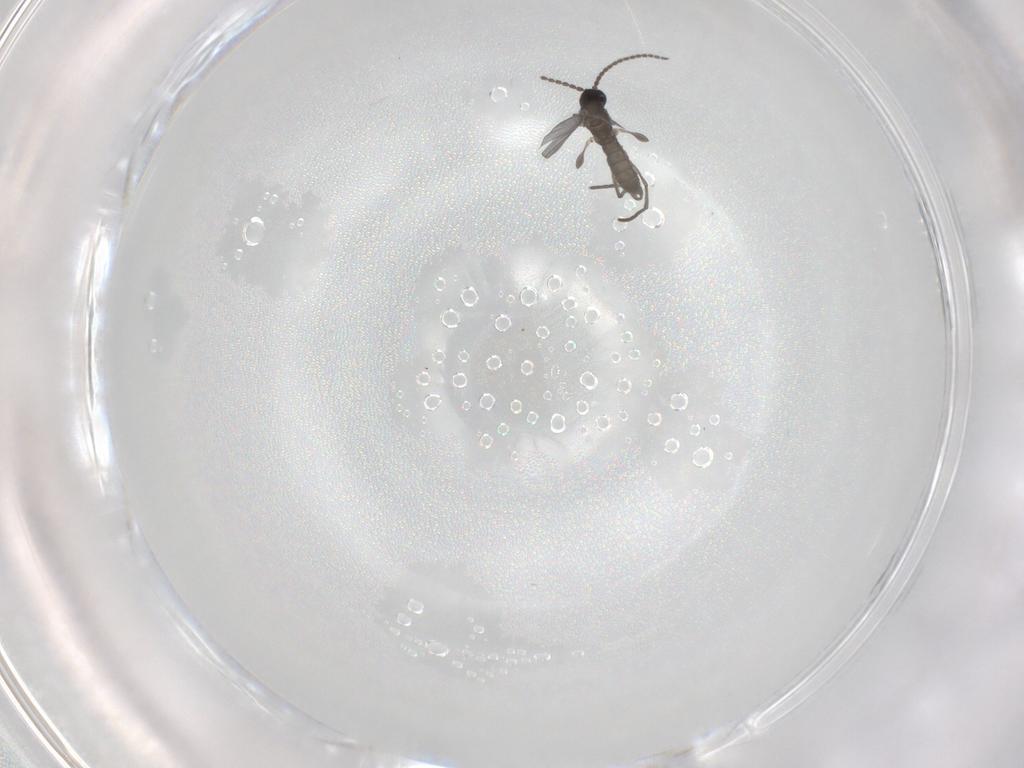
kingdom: Animalia
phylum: Arthropoda
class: Insecta
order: Diptera
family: Sciaridae
